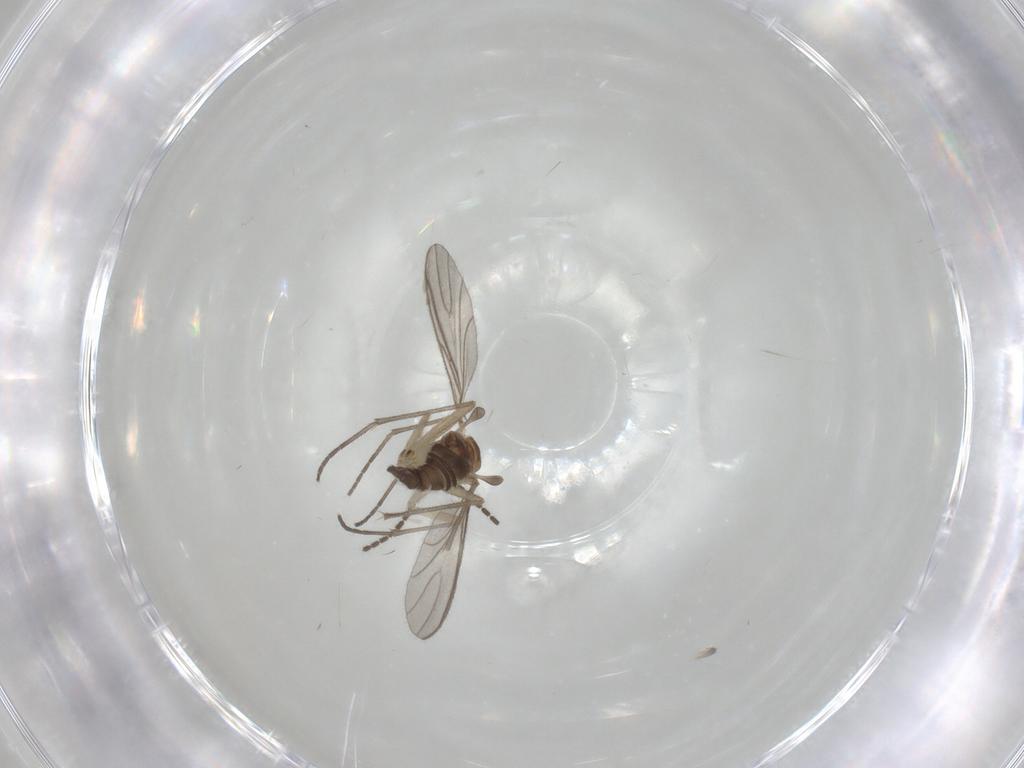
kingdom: Animalia
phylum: Arthropoda
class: Insecta
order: Diptera
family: Sciaridae
